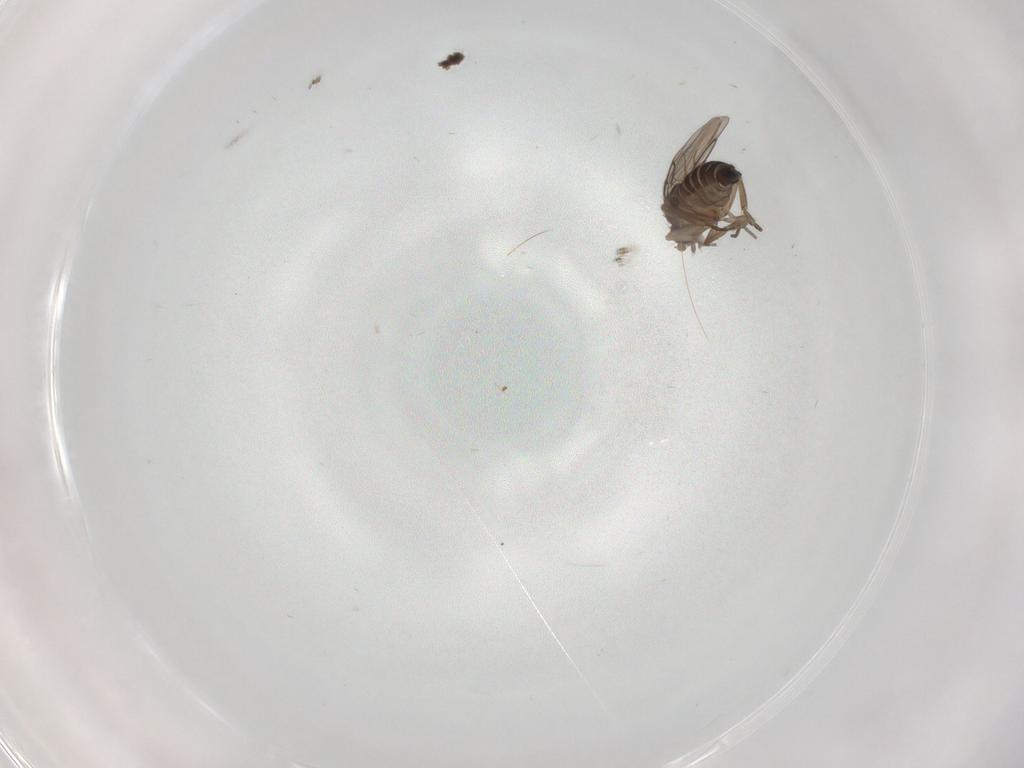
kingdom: Animalia
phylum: Arthropoda
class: Insecta
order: Diptera
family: Phoridae
